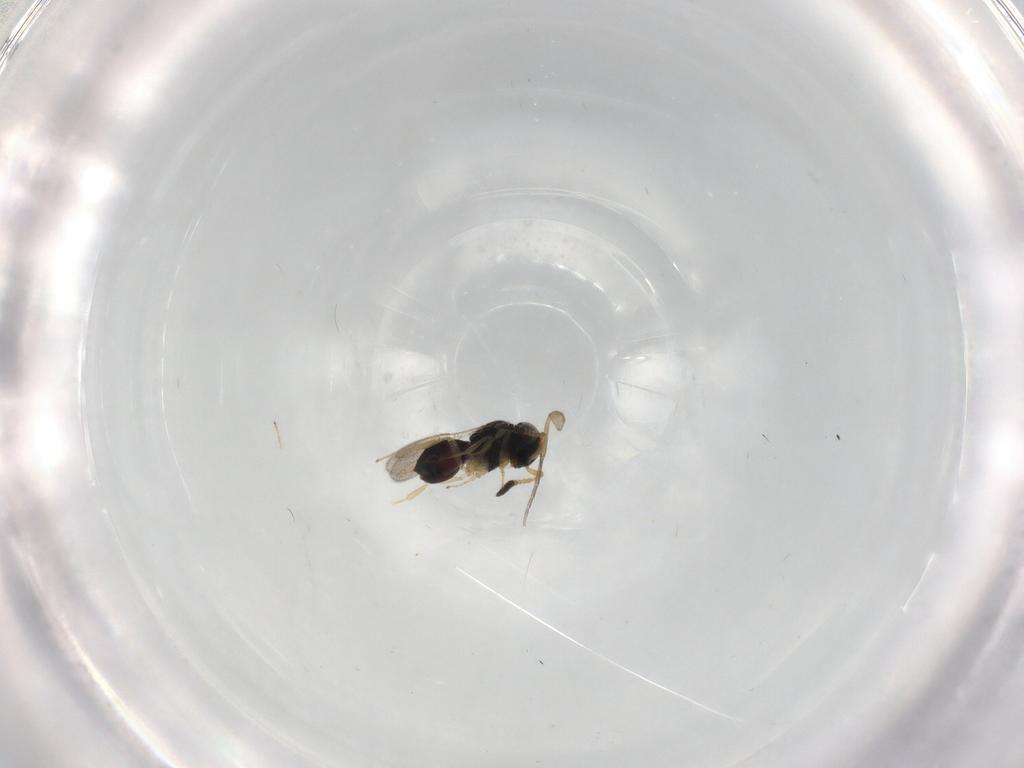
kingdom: Animalia
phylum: Arthropoda
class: Insecta
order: Hymenoptera
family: Scelionidae
